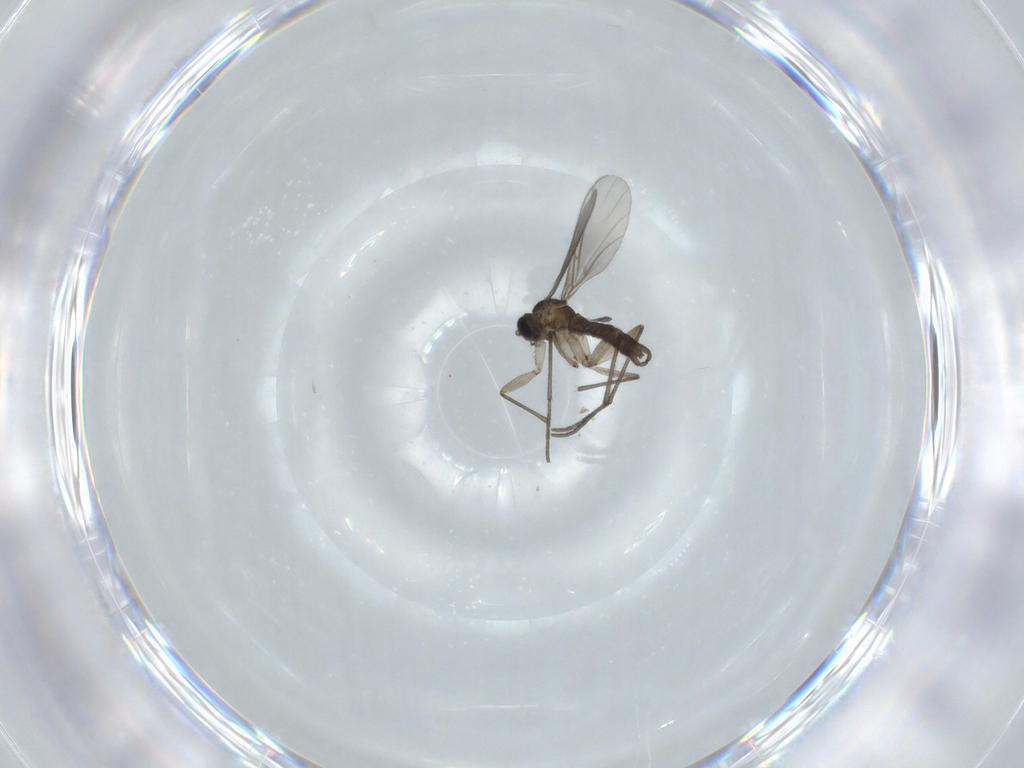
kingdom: Animalia
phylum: Arthropoda
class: Insecta
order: Diptera
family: Sciaridae
